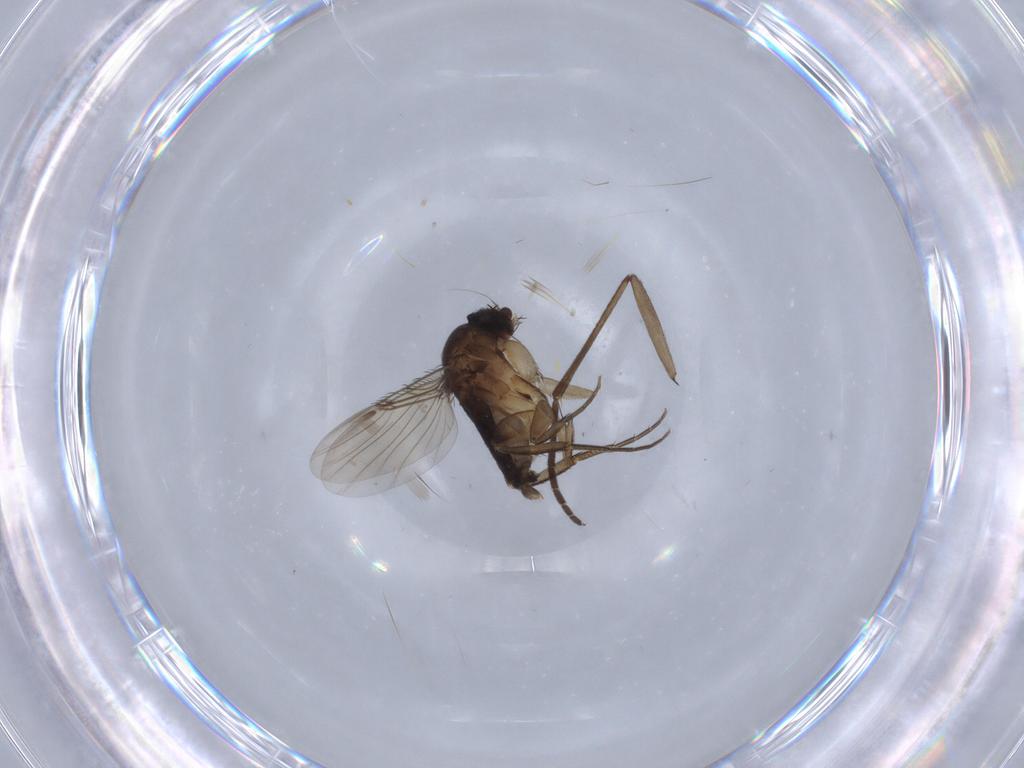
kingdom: Animalia
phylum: Arthropoda
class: Insecta
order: Diptera
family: Phoridae
